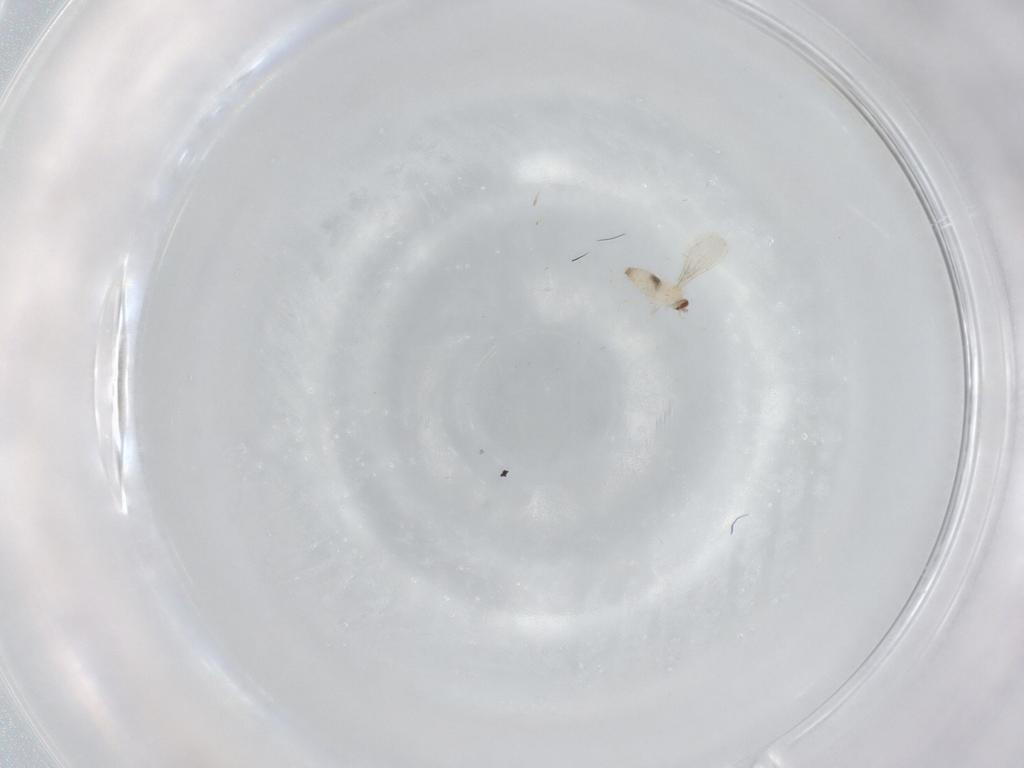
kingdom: Animalia
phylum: Arthropoda
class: Insecta
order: Diptera
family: Cecidomyiidae
